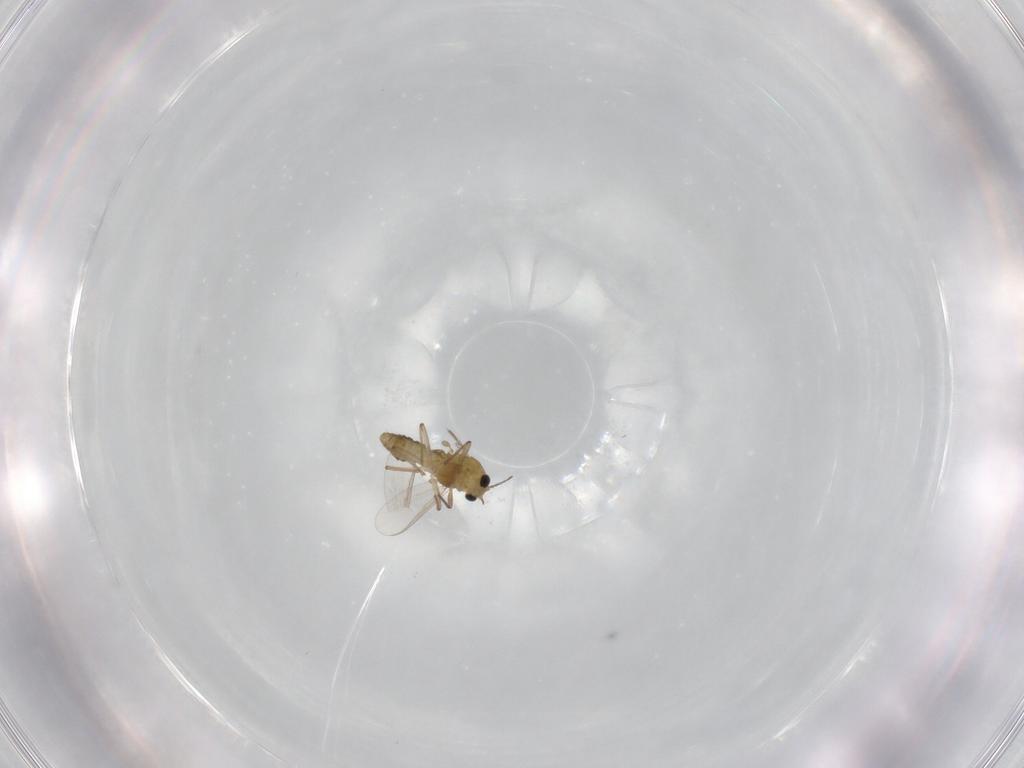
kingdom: Animalia
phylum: Arthropoda
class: Insecta
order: Diptera
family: Chironomidae
